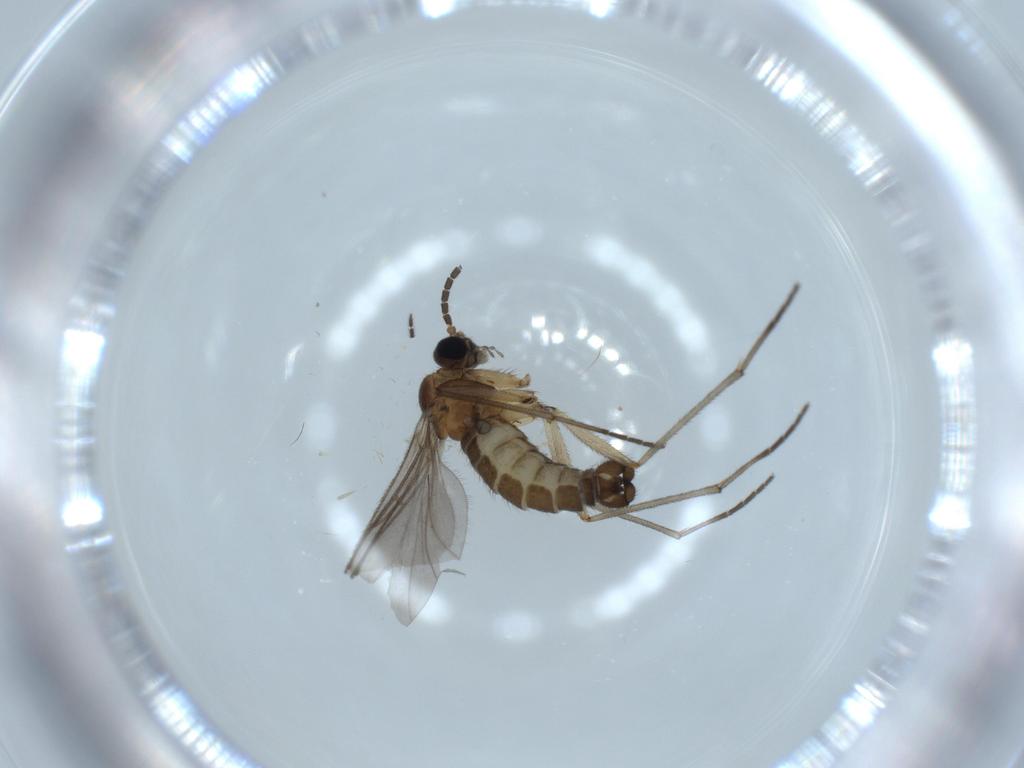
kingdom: Animalia
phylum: Arthropoda
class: Insecta
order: Diptera
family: Sciaridae
